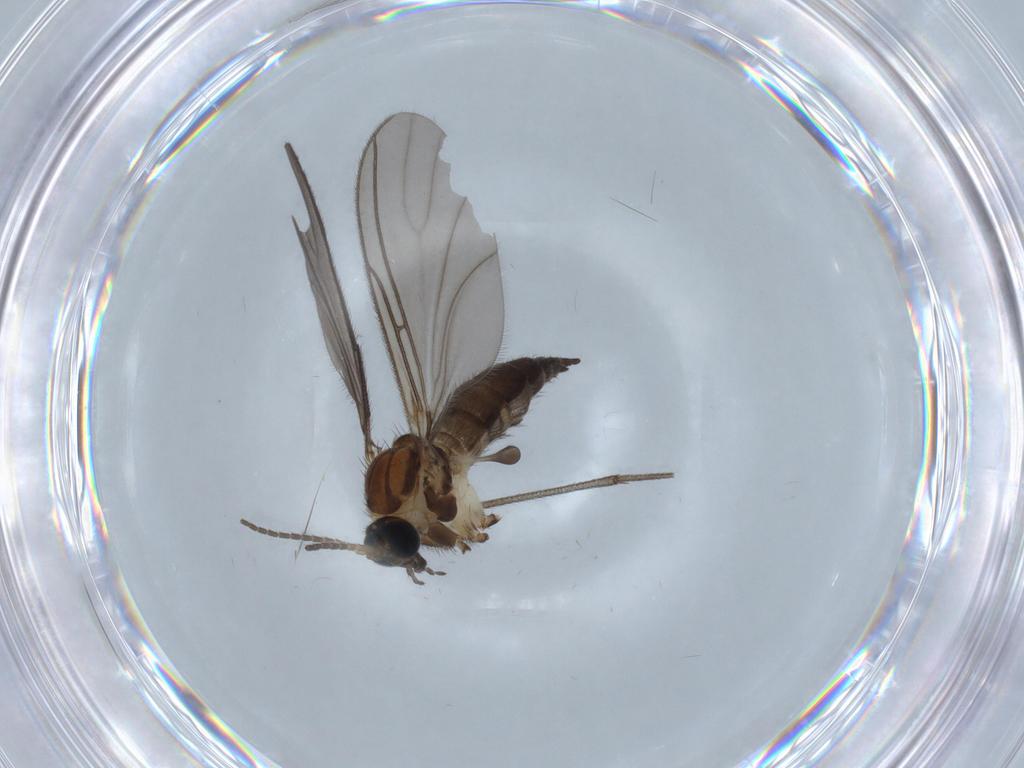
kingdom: Animalia
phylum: Arthropoda
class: Insecta
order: Diptera
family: Sciaridae
